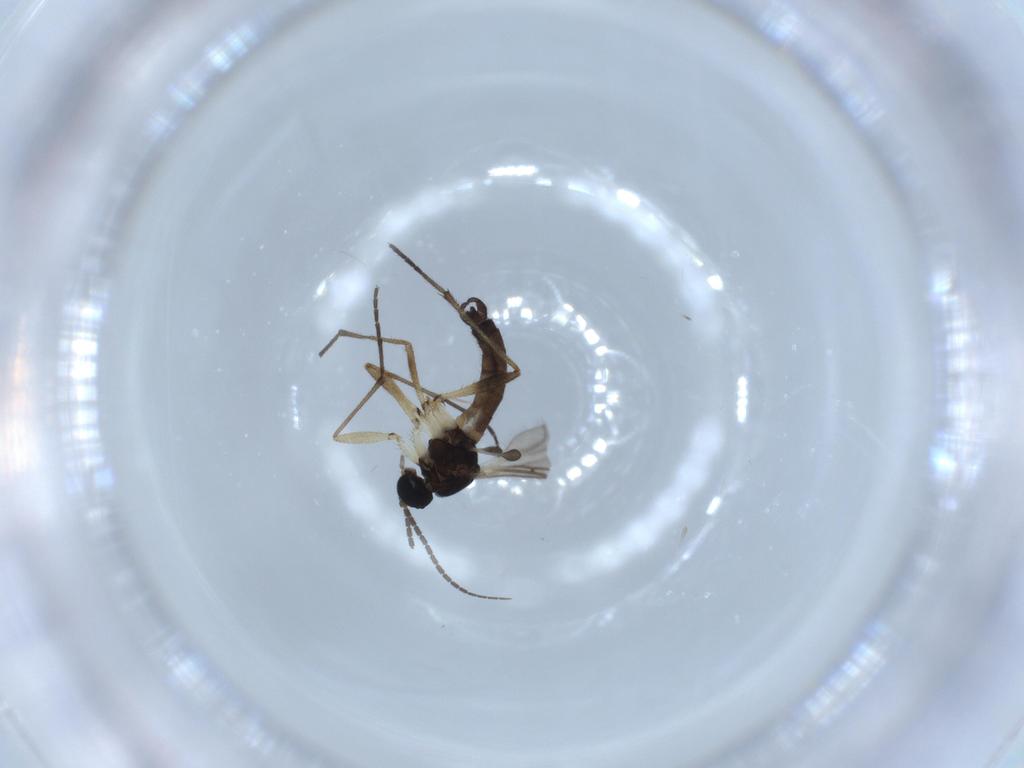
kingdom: Animalia
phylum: Arthropoda
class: Insecta
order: Diptera
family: Sciaridae
